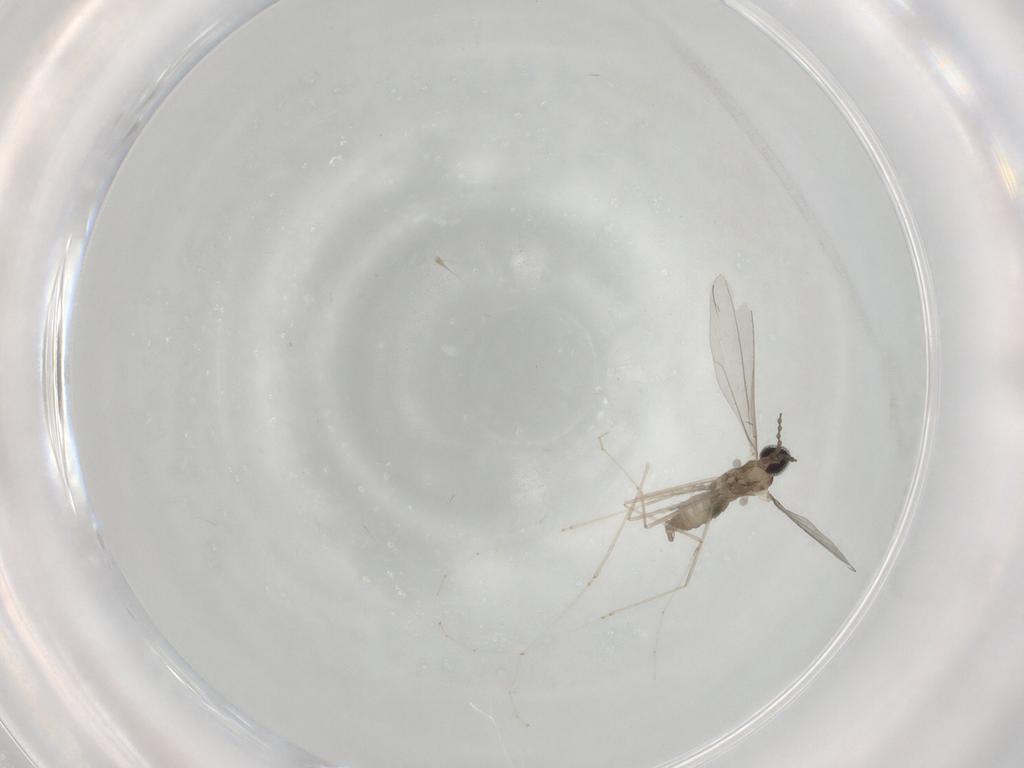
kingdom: Animalia
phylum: Arthropoda
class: Insecta
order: Diptera
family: Cecidomyiidae
